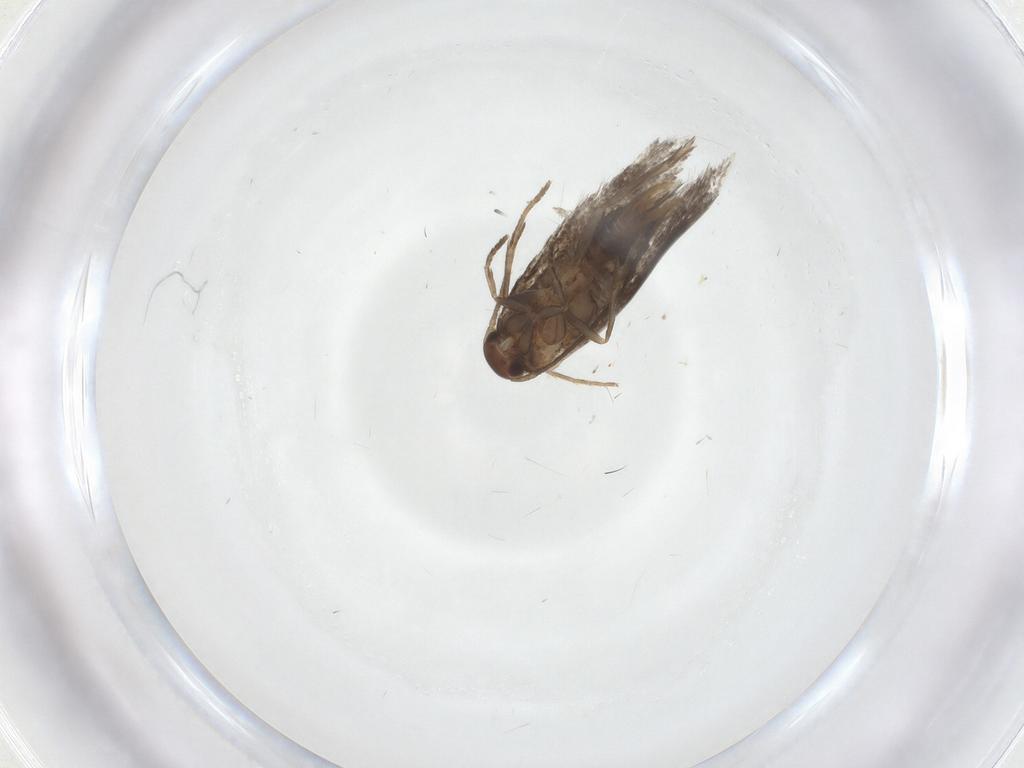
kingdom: Animalia
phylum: Arthropoda
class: Insecta
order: Lepidoptera
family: Elachistidae
